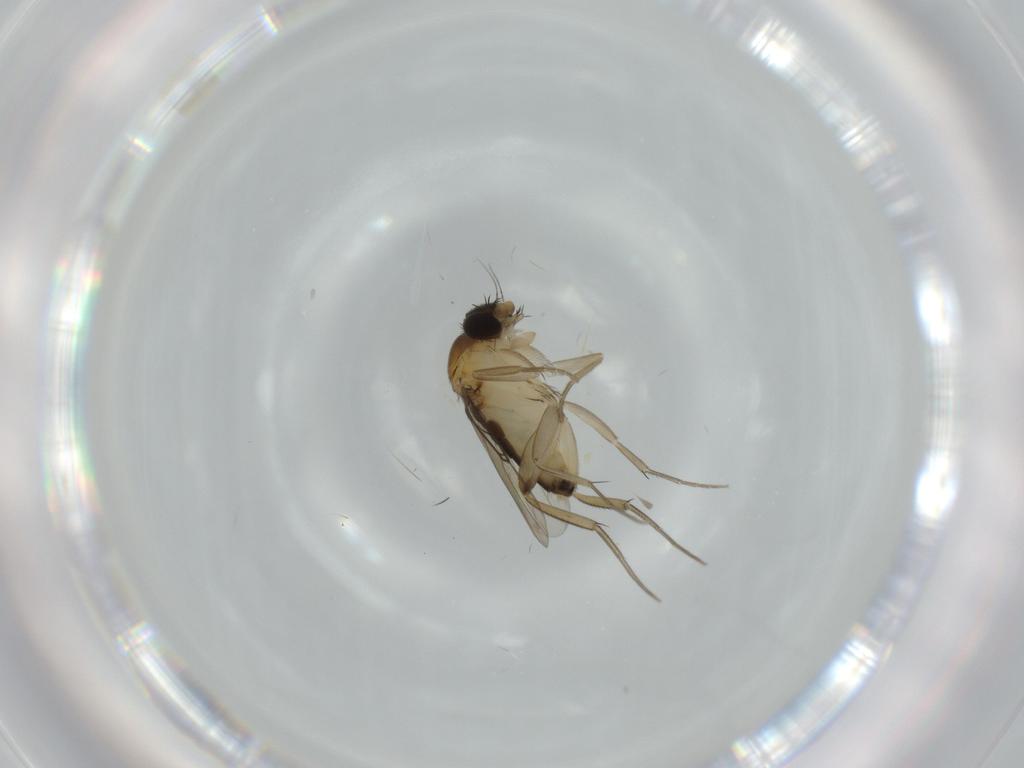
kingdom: Animalia
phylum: Arthropoda
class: Insecta
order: Diptera
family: Phoridae
